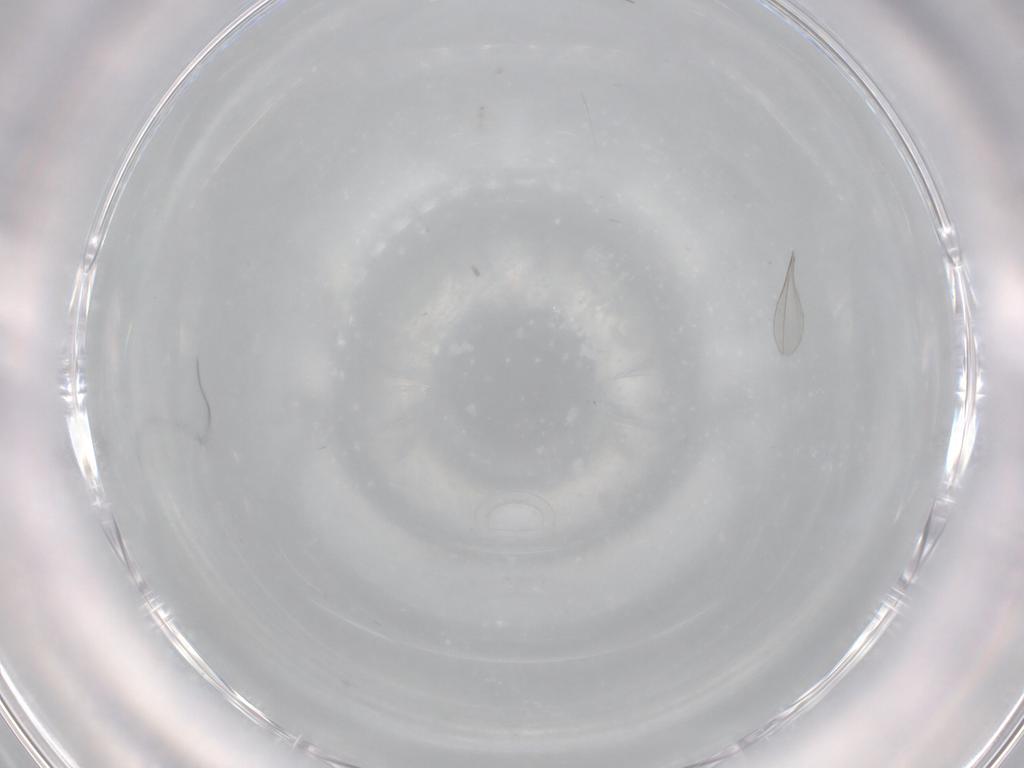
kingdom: Animalia
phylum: Arthropoda
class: Insecta
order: Diptera
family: Cecidomyiidae
